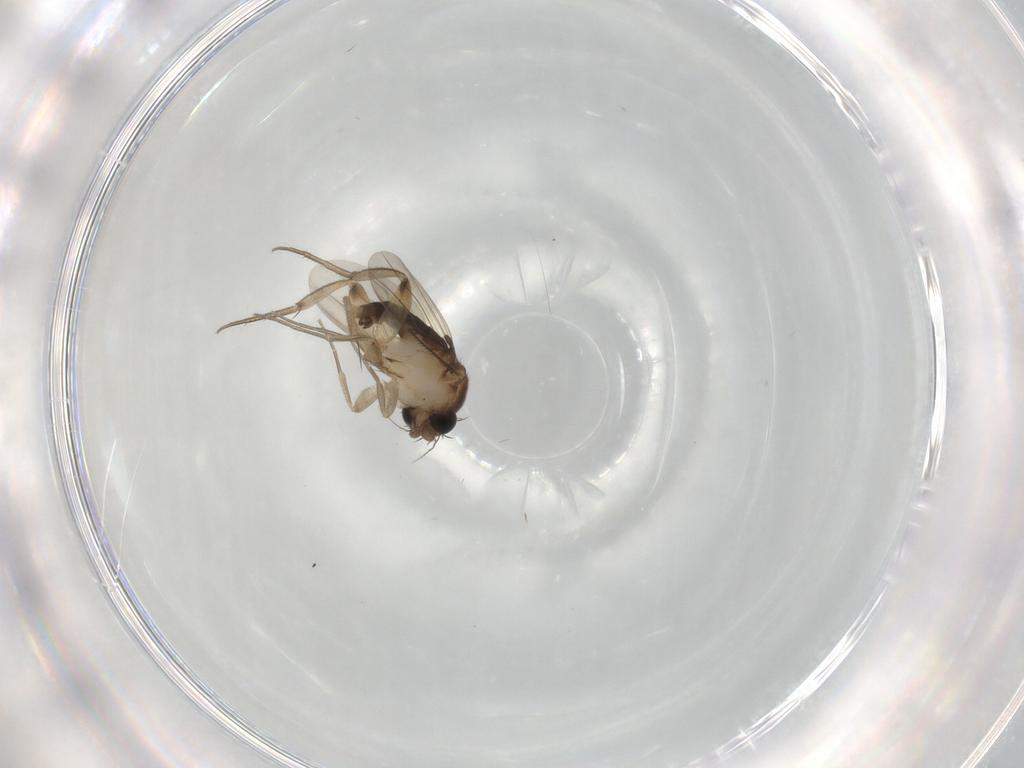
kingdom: Animalia
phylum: Arthropoda
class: Insecta
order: Diptera
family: Phoridae
